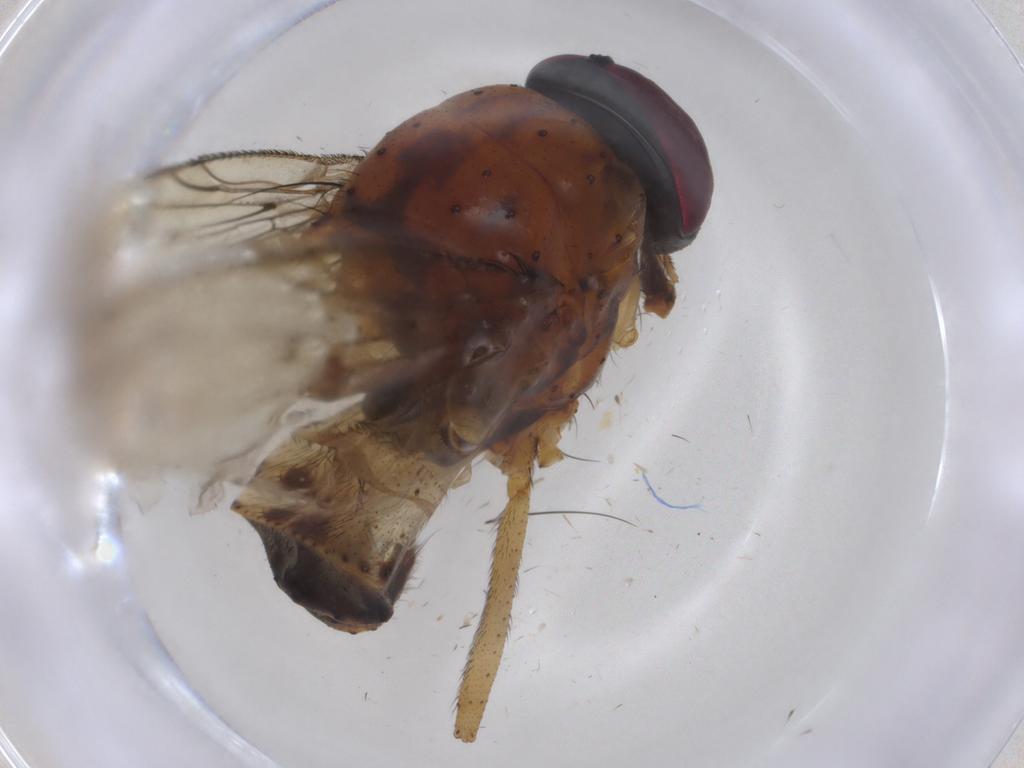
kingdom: Animalia
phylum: Arthropoda
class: Insecta
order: Diptera
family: Muscidae
